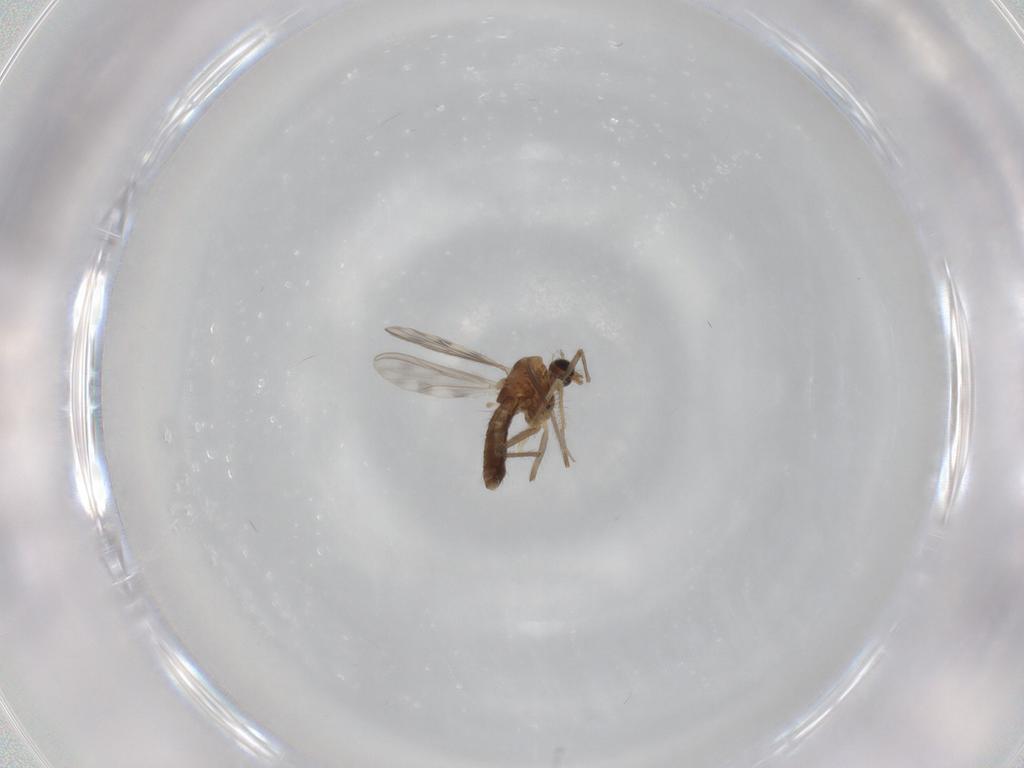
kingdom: Animalia
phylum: Arthropoda
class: Insecta
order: Diptera
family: Chironomidae
